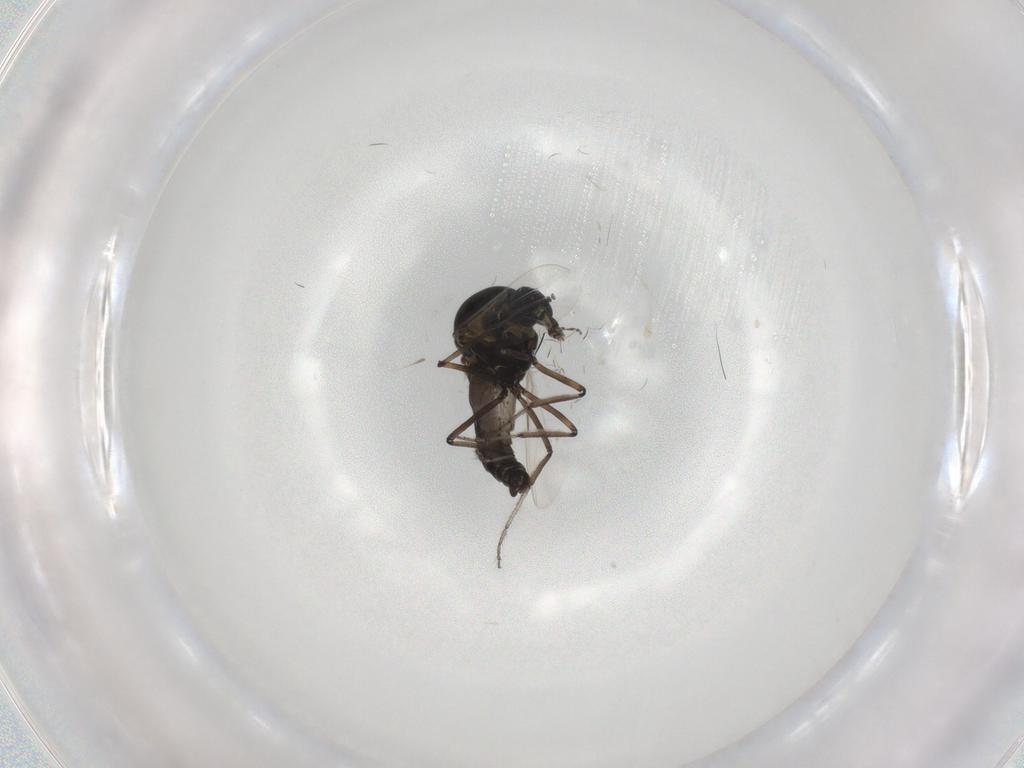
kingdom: Animalia
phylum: Arthropoda
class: Insecta
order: Diptera
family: Ceratopogonidae
